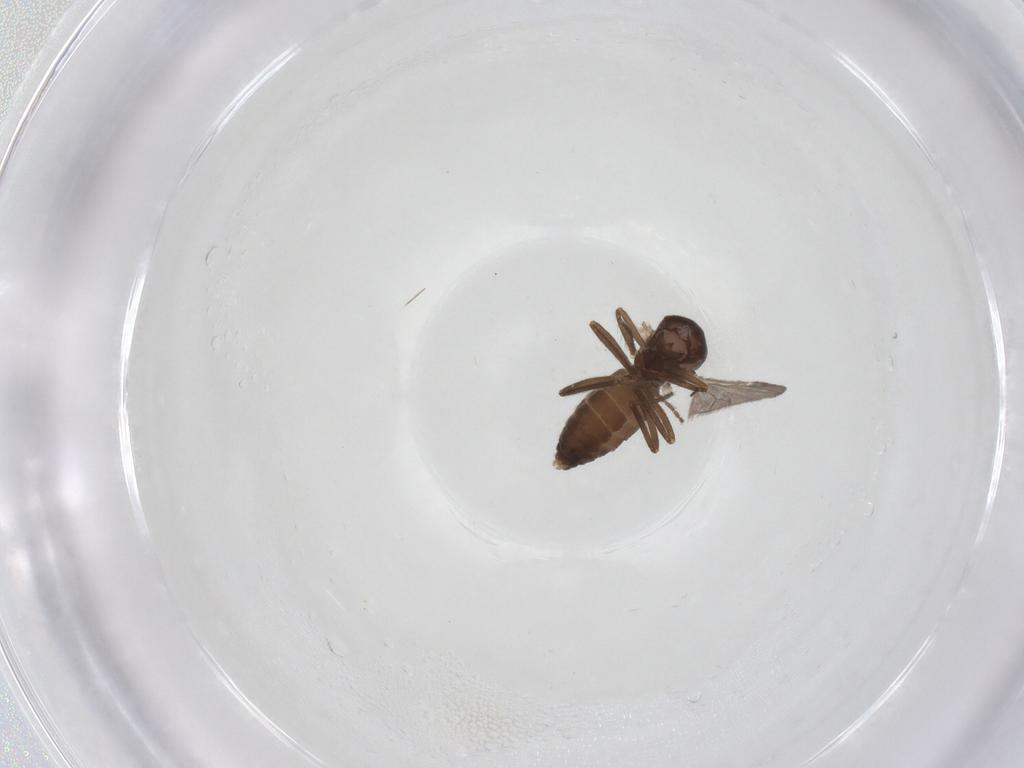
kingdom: Animalia
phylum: Arthropoda
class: Insecta
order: Diptera
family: Ceratopogonidae
